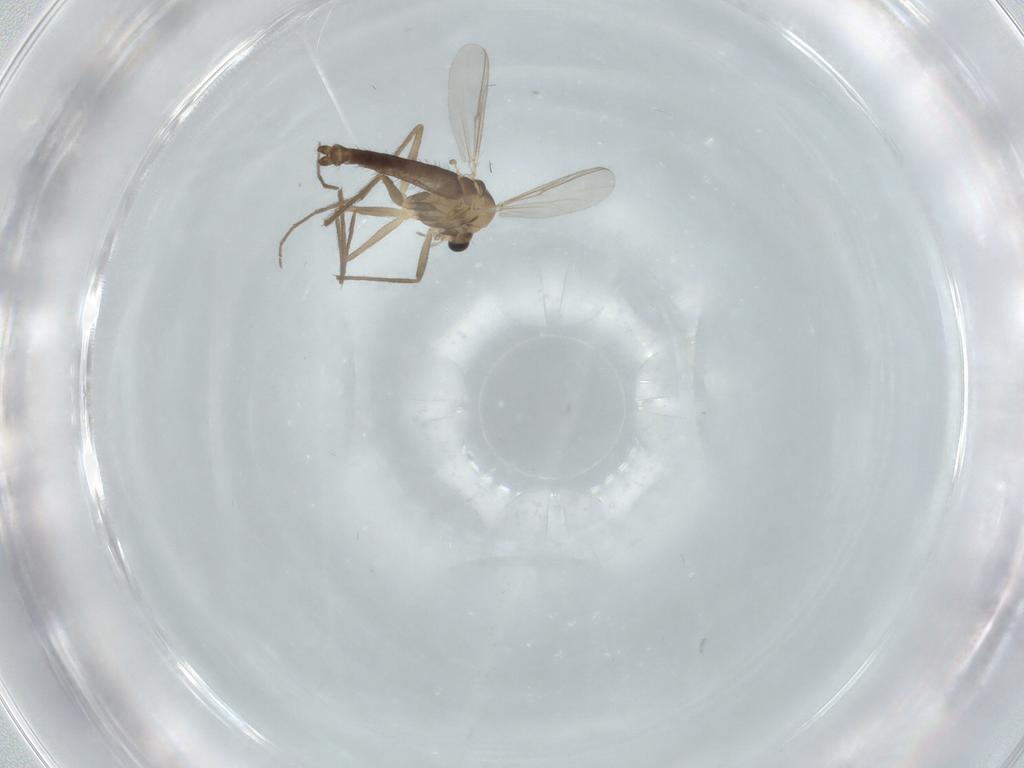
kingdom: Animalia
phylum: Arthropoda
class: Insecta
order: Diptera
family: Chironomidae
